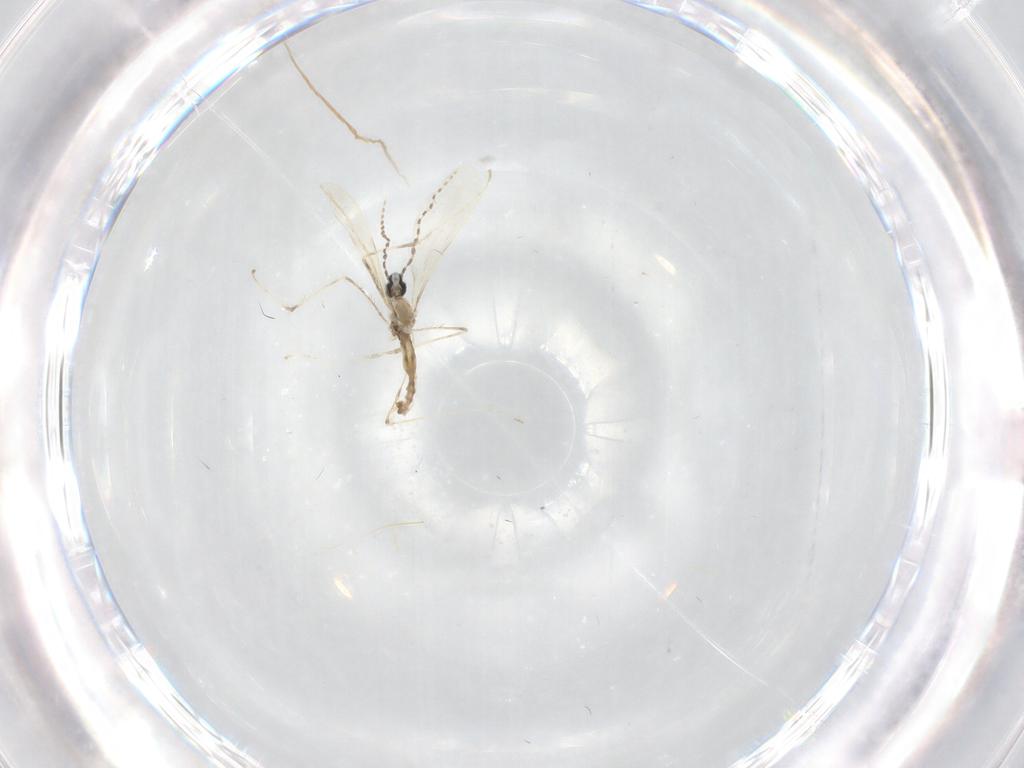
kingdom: Animalia
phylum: Arthropoda
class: Insecta
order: Diptera
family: Cecidomyiidae
